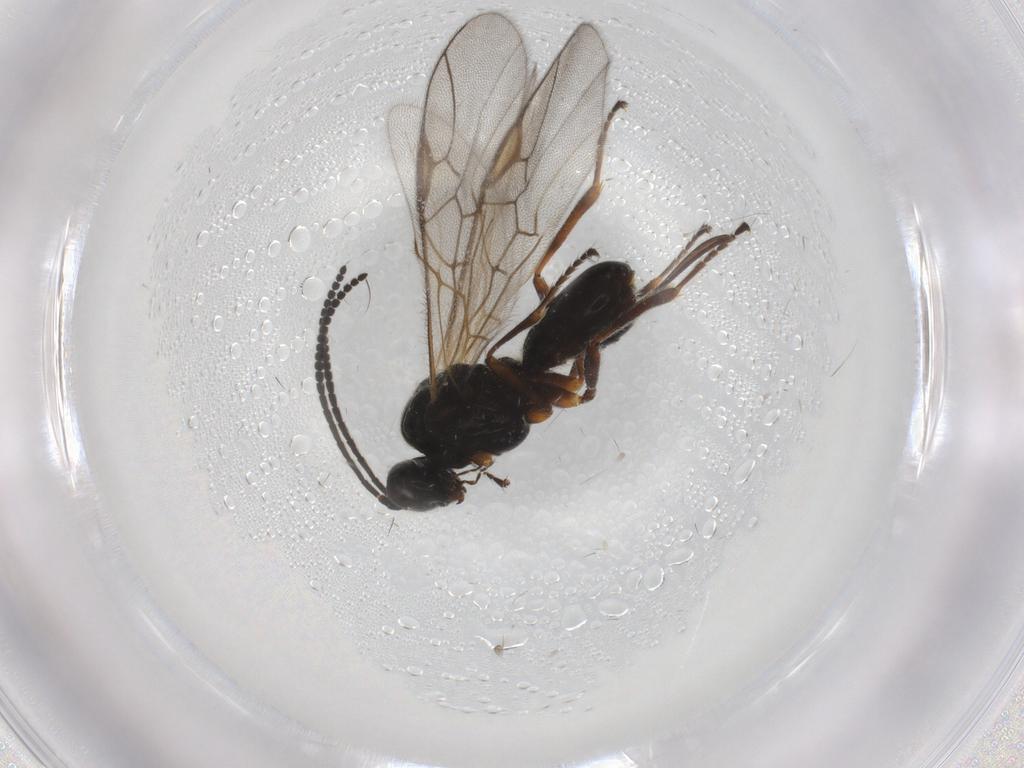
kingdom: Animalia
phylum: Arthropoda
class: Insecta
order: Hymenoptera
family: Braconidae
